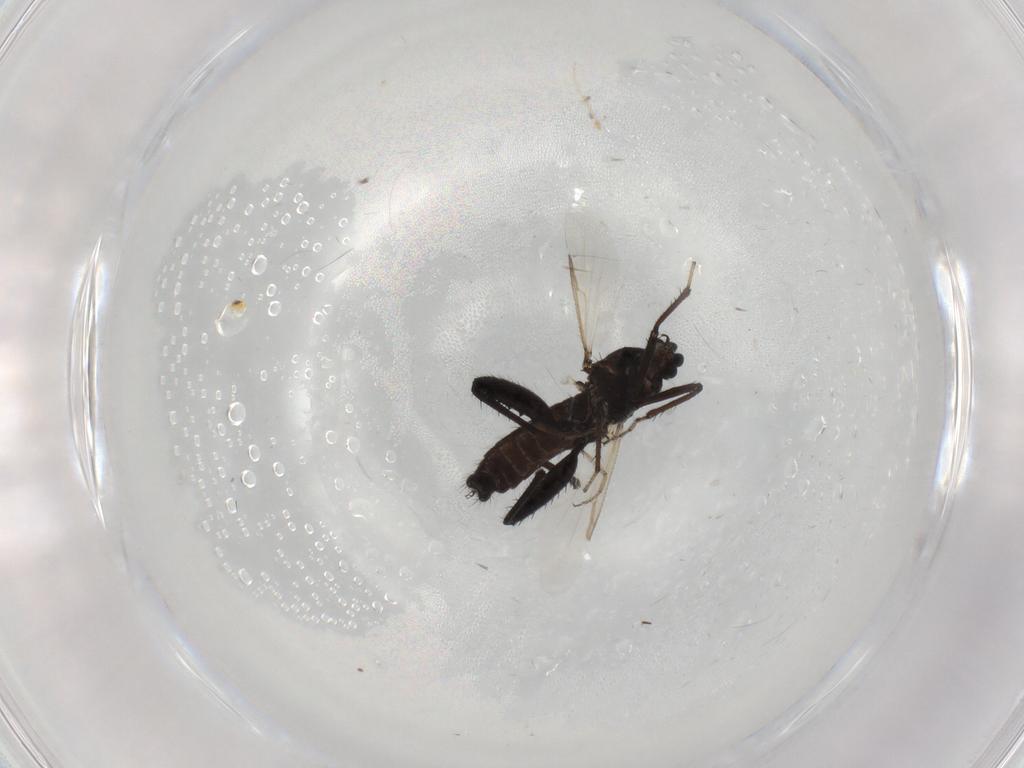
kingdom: Animalia
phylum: Arthropoda
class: Insecta
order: Diptera
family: Ceratopogonidae
